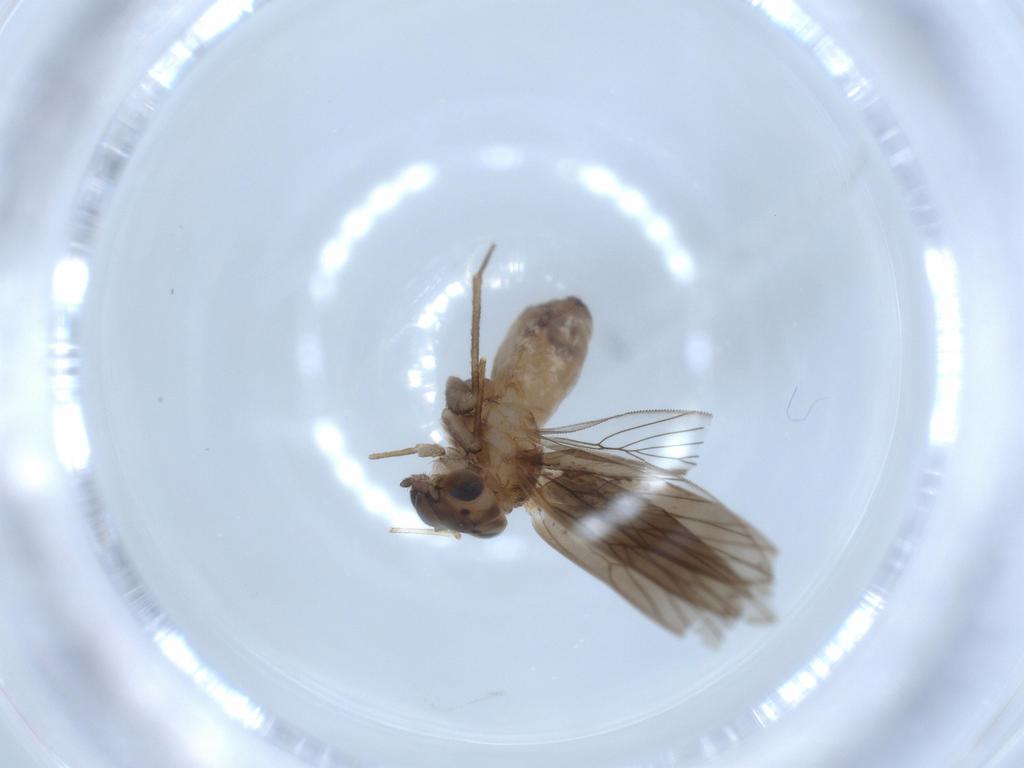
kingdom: Animalia
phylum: Arthropoda
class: Insecta
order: Psocodea
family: Lepidopsocidae
